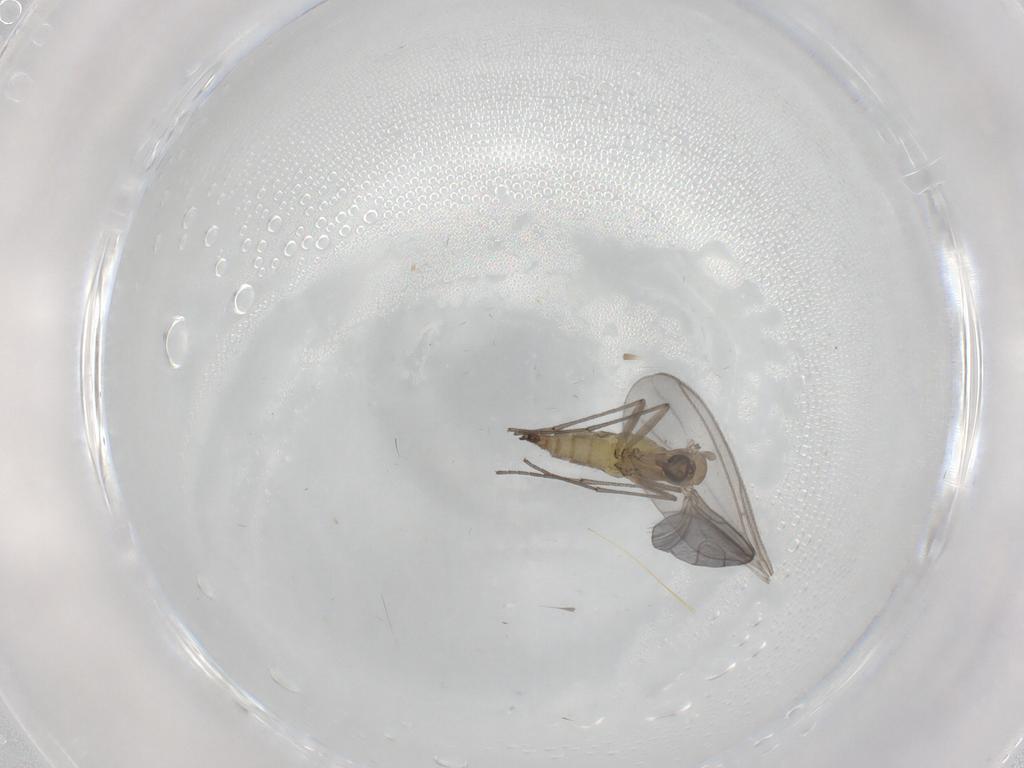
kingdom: Animalia
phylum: Arthropoda
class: Insecta
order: Diptera
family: Sciaridae
